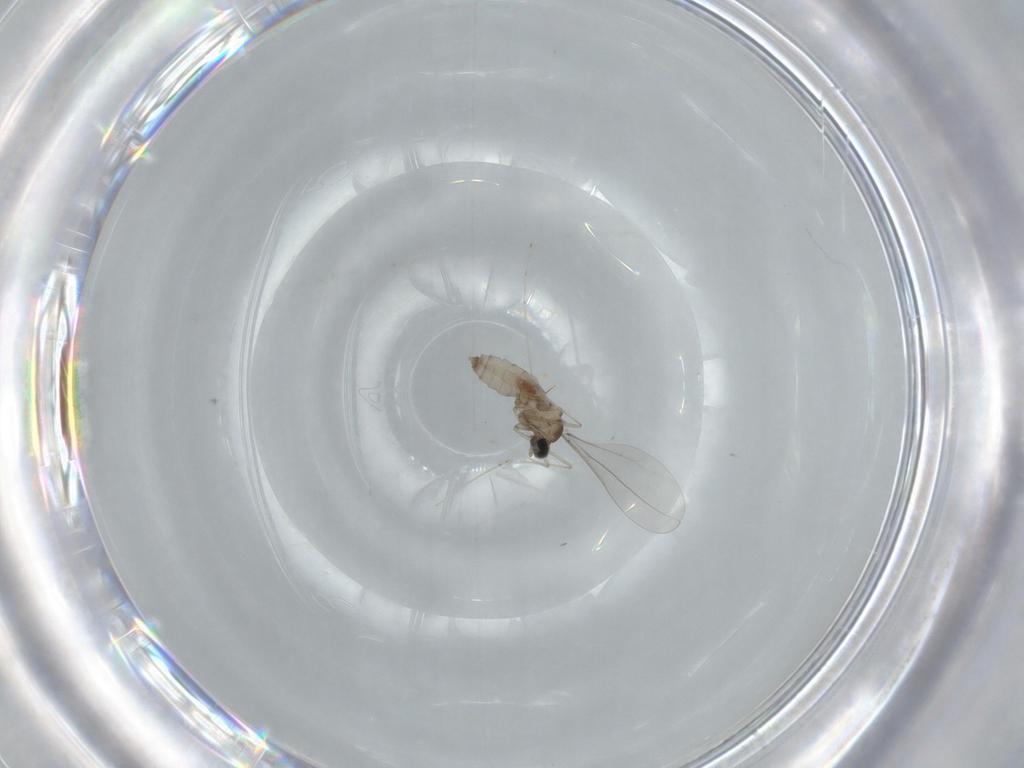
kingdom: Animalia
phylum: Arthropoda
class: Insecta
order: Diptera
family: Cecidomyiidae
